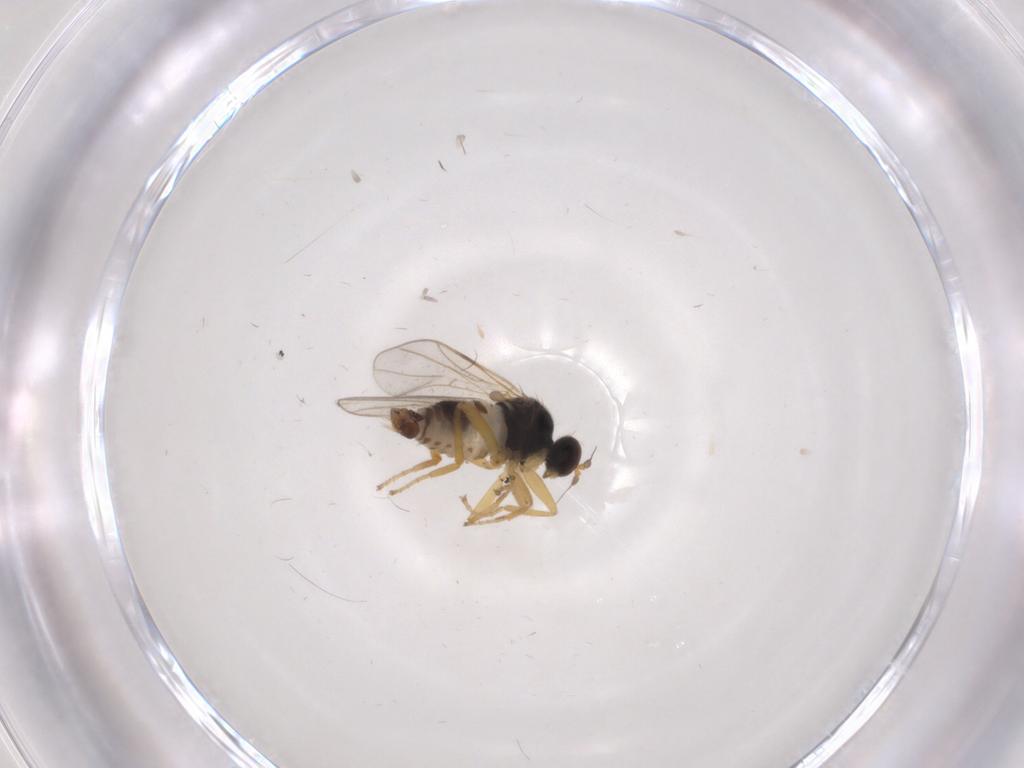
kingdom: Animalia
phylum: Arthropoda
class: Insecta
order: Diptera
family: Hybotidae
